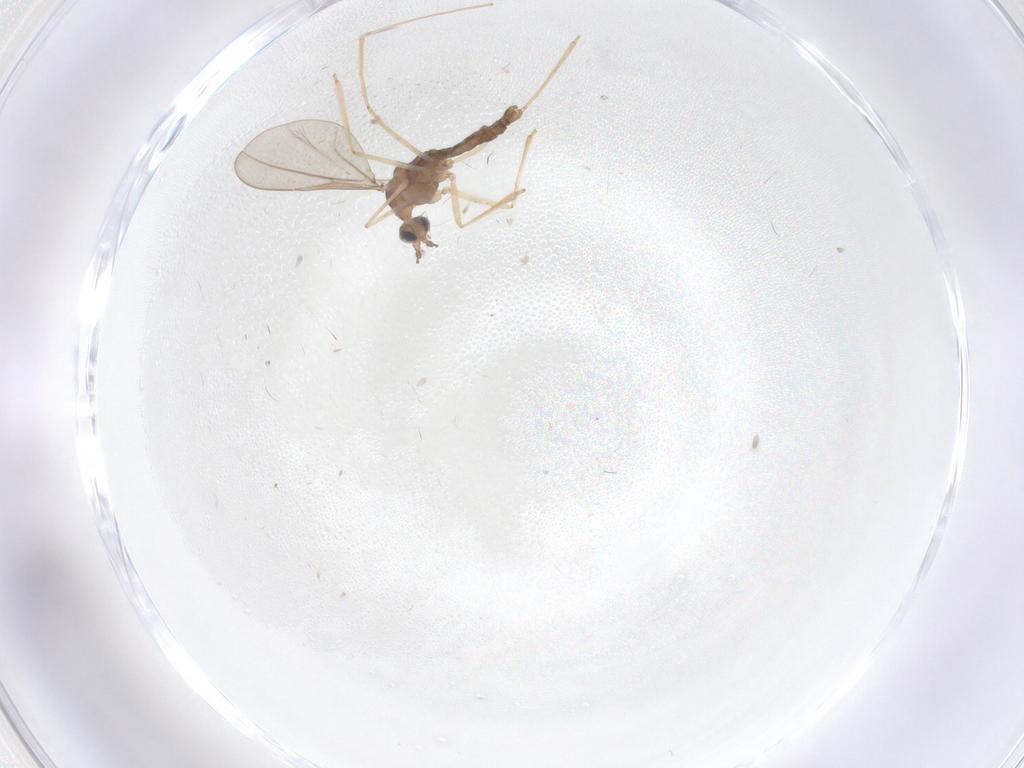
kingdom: Animalia
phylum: Arthropoda
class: Insecta
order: Diptera
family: Cecidomyiidae
